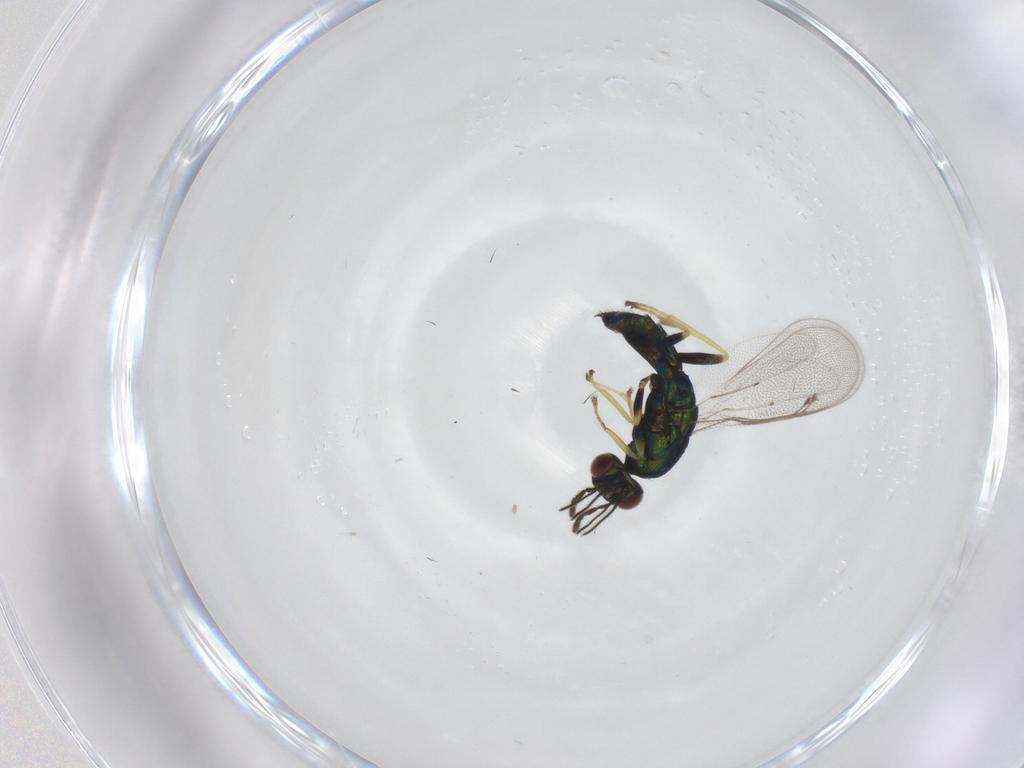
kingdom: Animalia
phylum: Arthropoda
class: Insecta
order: Hymenoptera
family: Eulophidae
